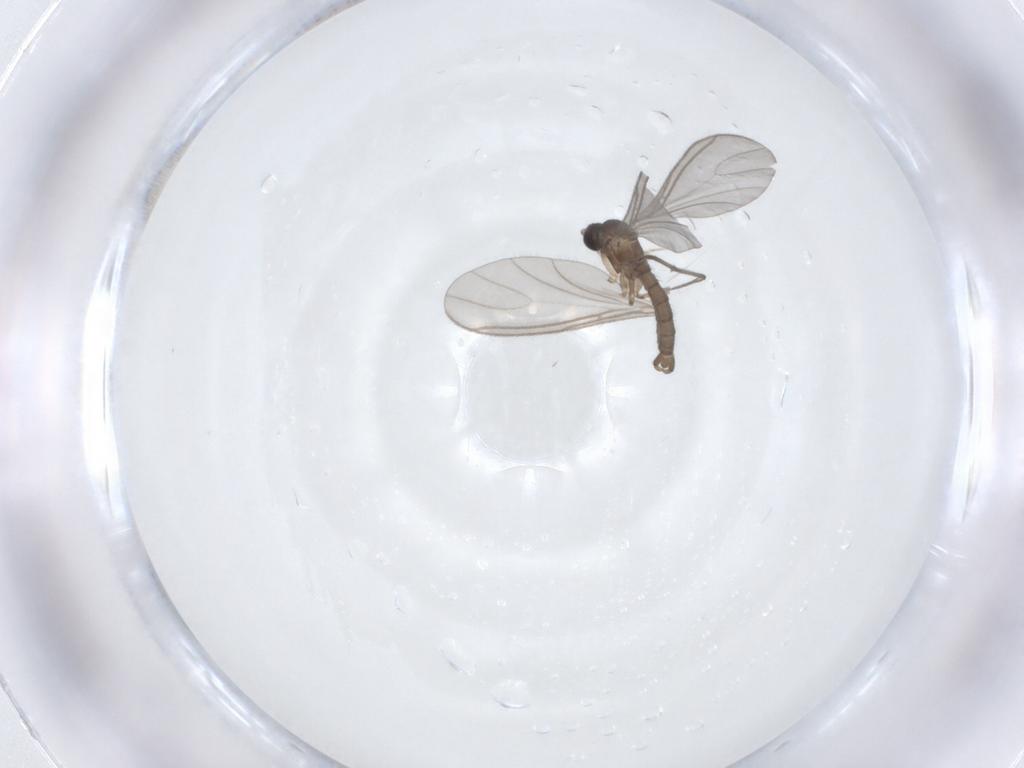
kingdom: Animalia
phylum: Arthropoda
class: Insecta
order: Diptera
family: Sciaridae
